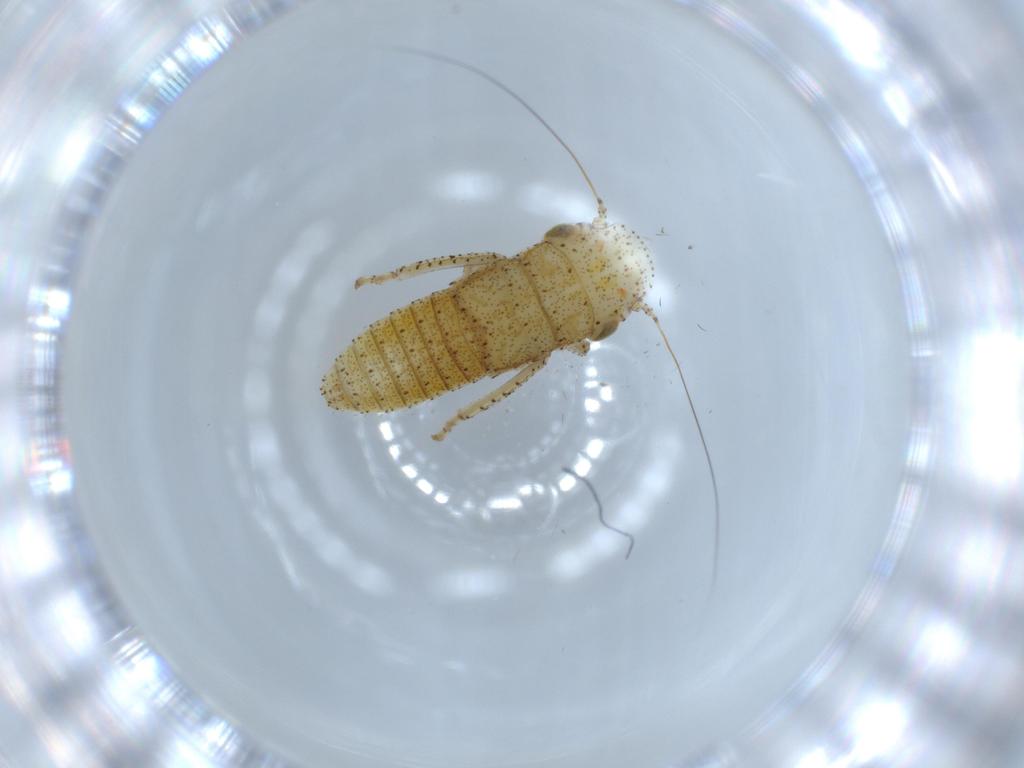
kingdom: Animalia
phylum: Arthropoda
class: Insecta
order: Hemiptera
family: Cicadellidae
